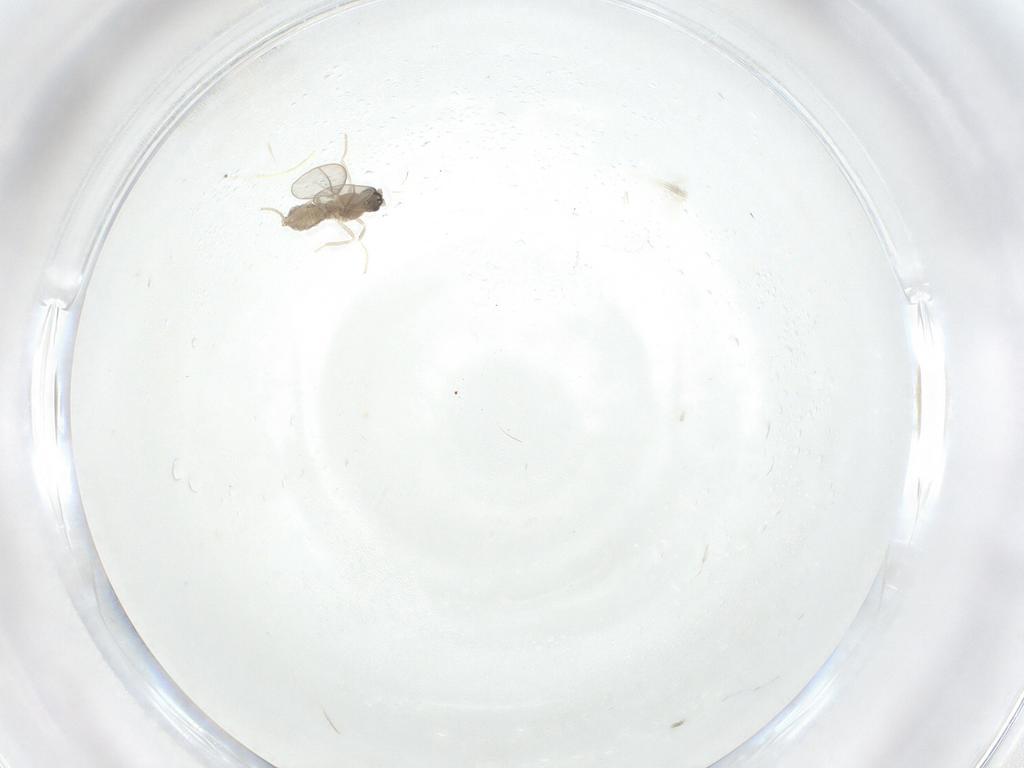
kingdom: Animalia
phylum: Arthropoda
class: Insecta
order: Diptera
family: Cecidomyiidae
